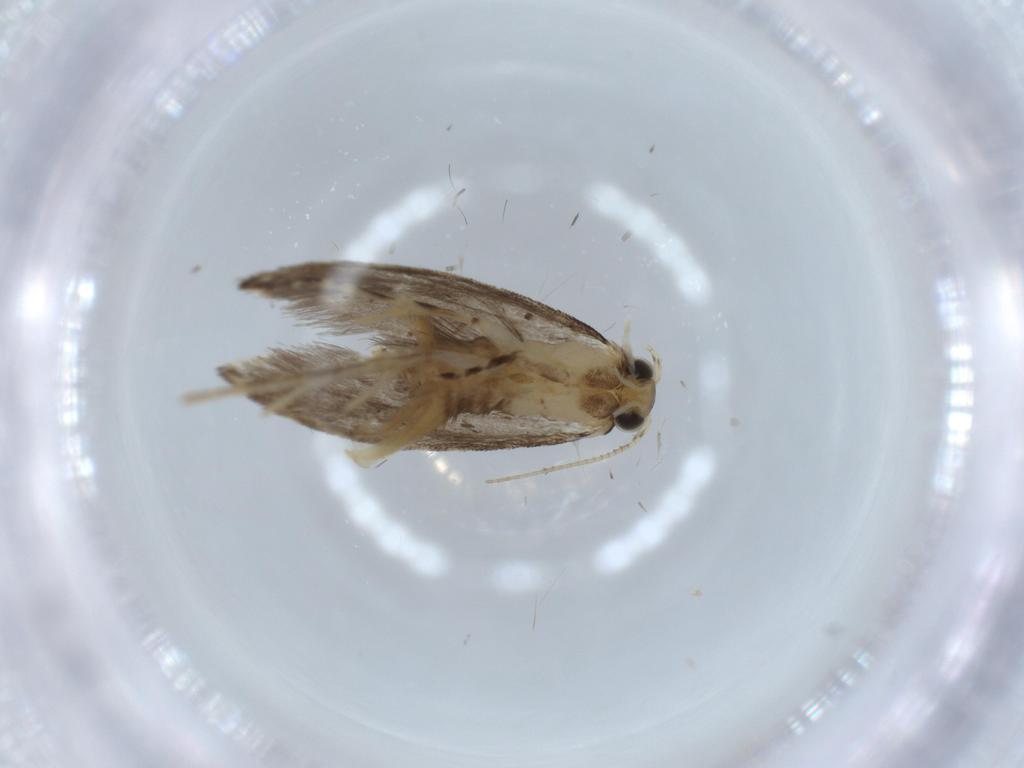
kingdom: Animalia
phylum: Arthropoda
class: Insecta
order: Lepidoptera
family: Tineidae
